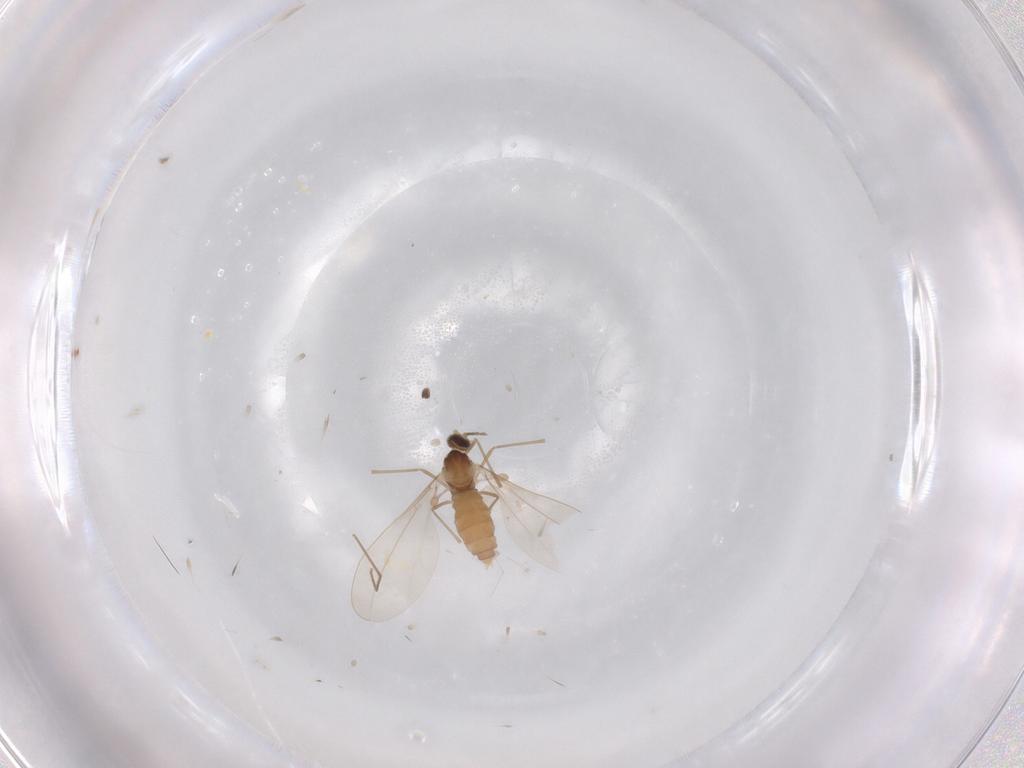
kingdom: Animalia
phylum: Arthropoda
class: Insecta
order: Diptera
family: Chironomidae
